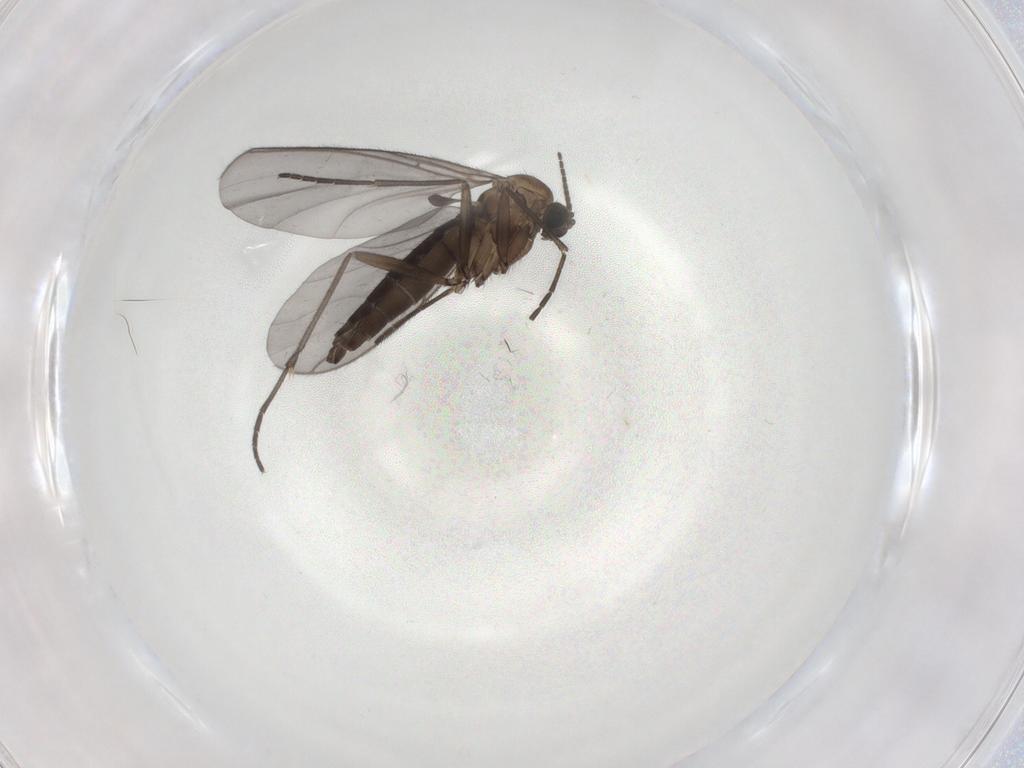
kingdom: Animalia
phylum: Arthropoda
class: Insecta
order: Diptera
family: Sciaridae
